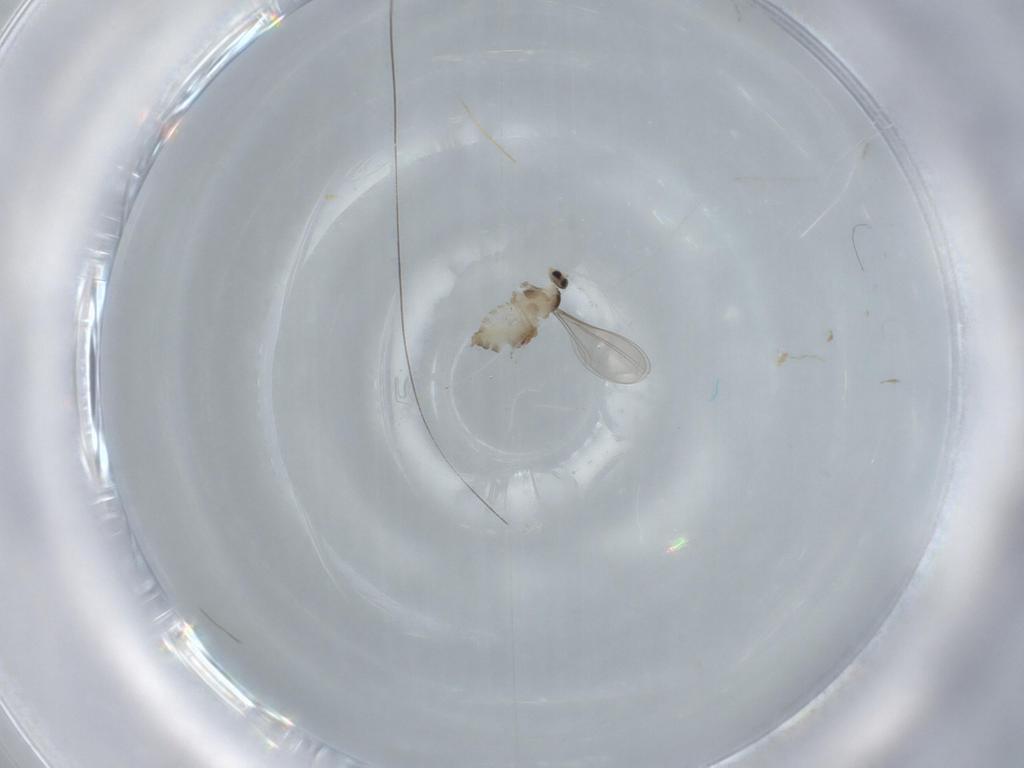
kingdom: Animalia
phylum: Arthropoda
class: Insecta
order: Diptera
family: Cecidomyiidae
